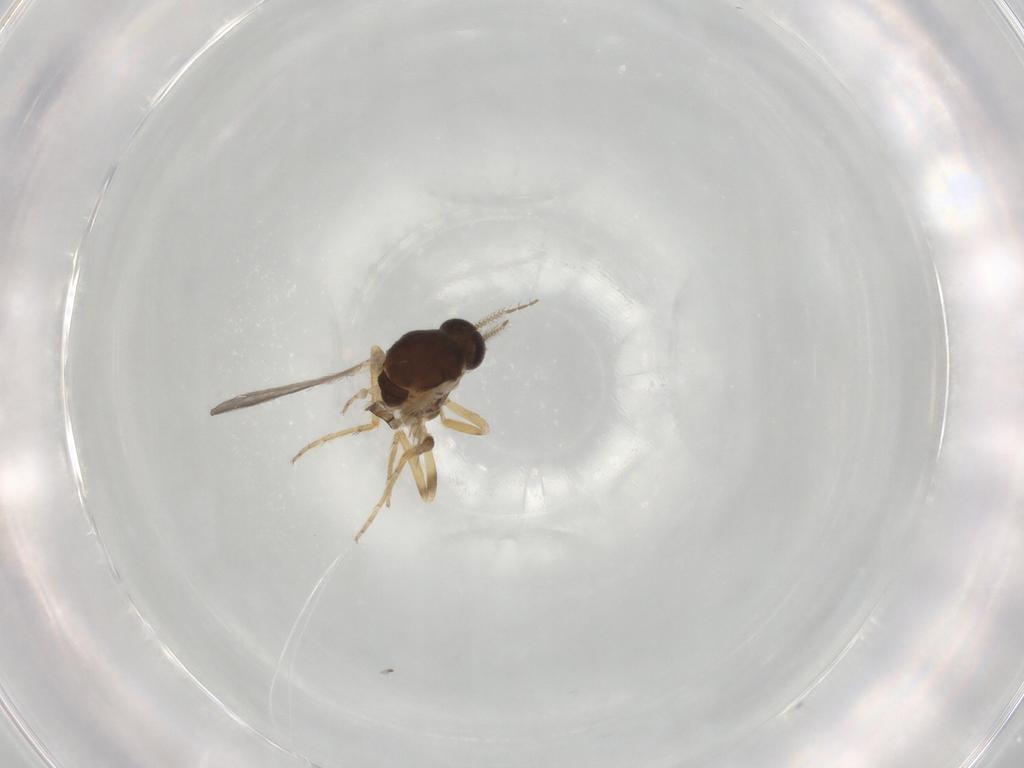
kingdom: Animalia
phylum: Arthropoda
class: Insecta
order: Diptera
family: Ceratopogonidae
